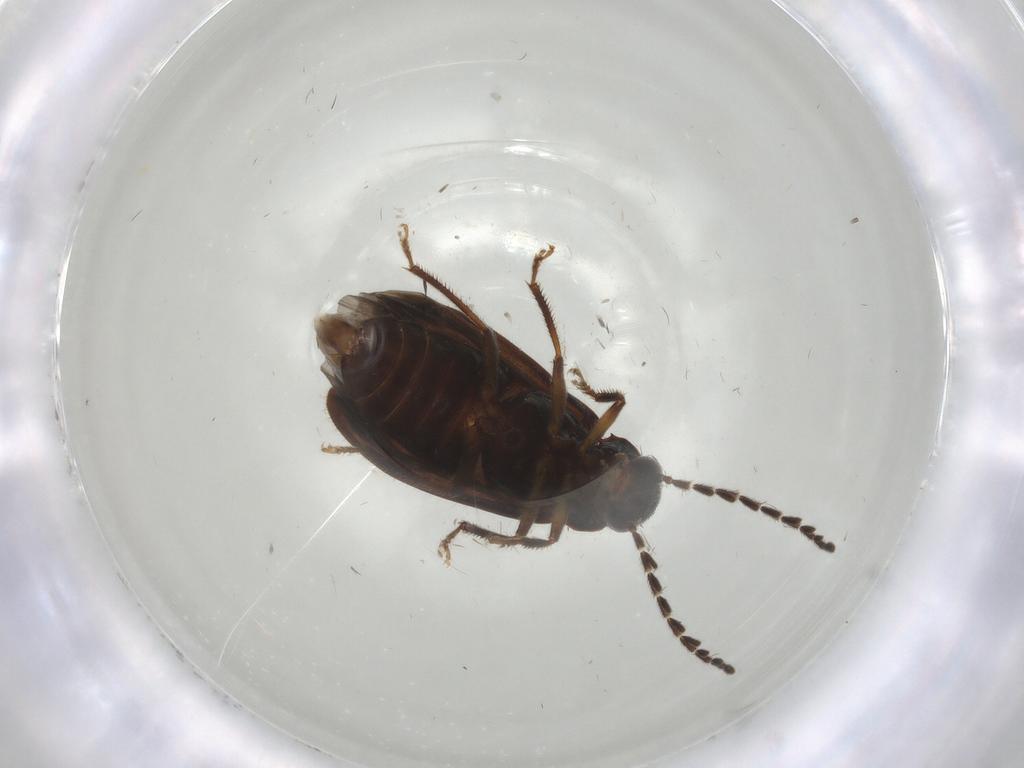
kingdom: Animalia
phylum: Arthropoda
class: Insecta
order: Coleoptera
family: Ptilodactylidae
